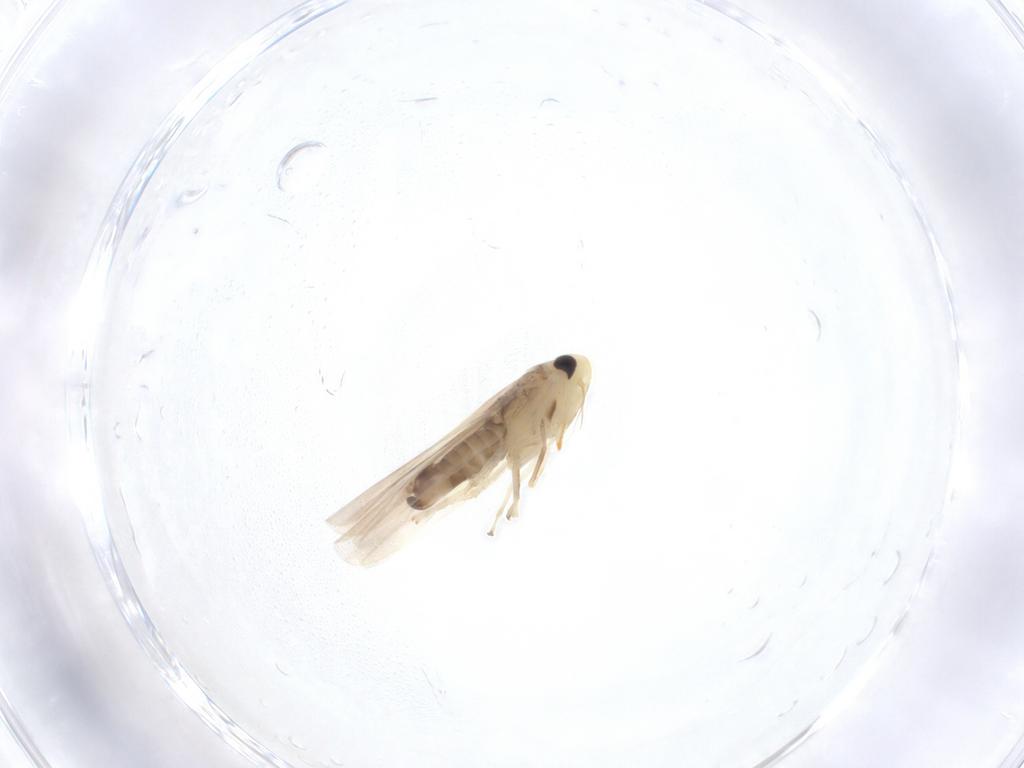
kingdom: Animalia
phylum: Arthropoda
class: Insecta
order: Hemiptera
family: Cicadellidae
